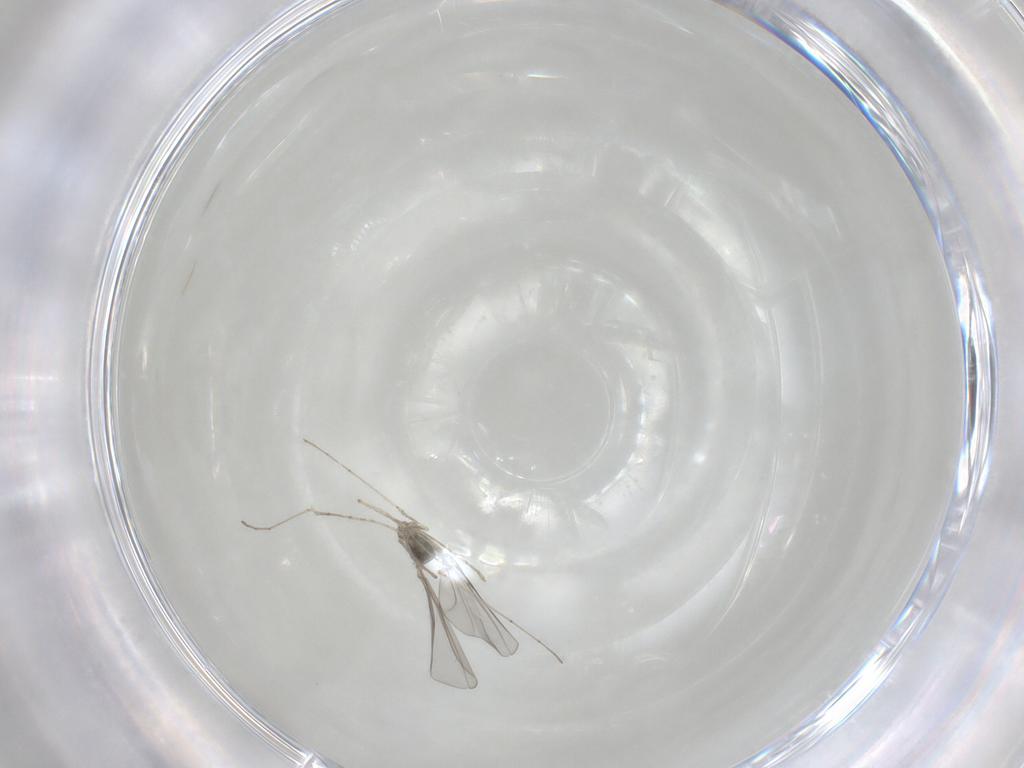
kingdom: Animalia
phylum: Arthropoda
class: Insecta
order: Diptera
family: Cecidomyiidae
